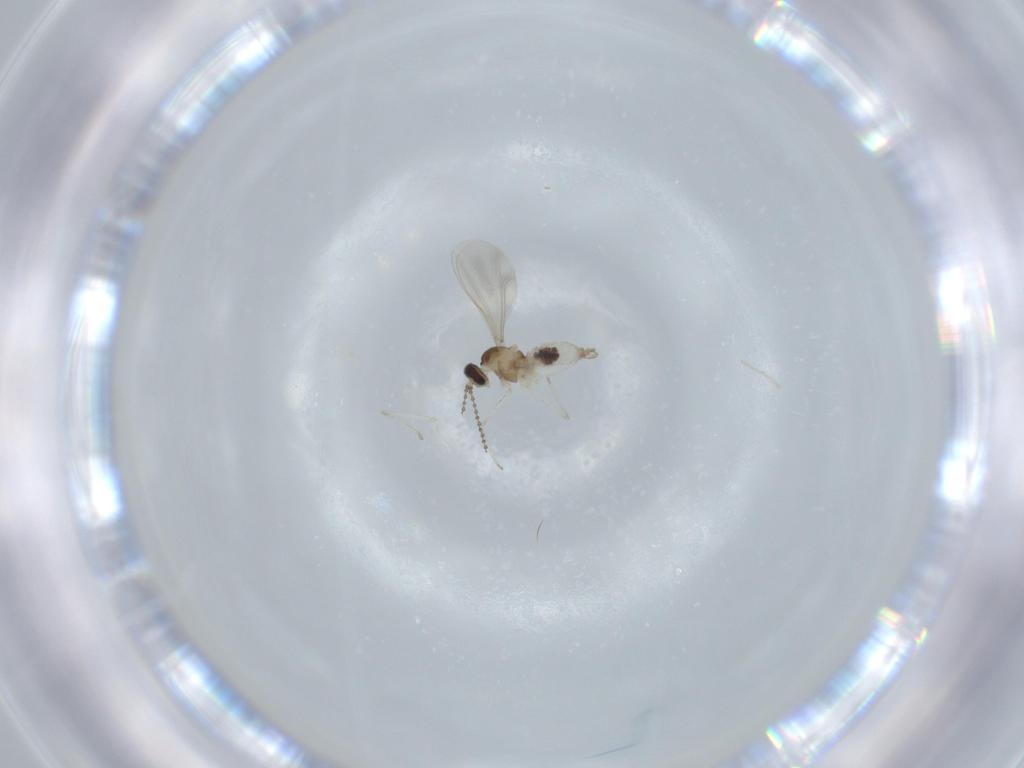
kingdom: Animalia
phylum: Arthropoda
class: Insecta
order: Diptera
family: Cecidomyiidae
